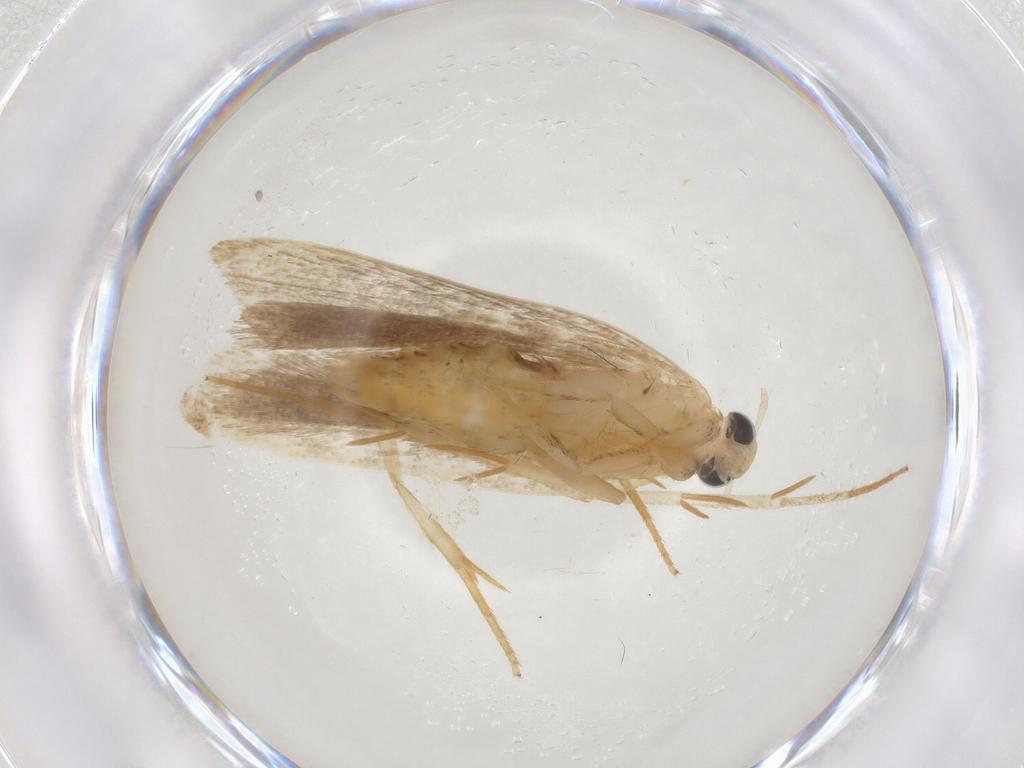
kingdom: Animalia
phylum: Arthropoda
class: Insecta
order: Lepidoptera
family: Gelechiidae
